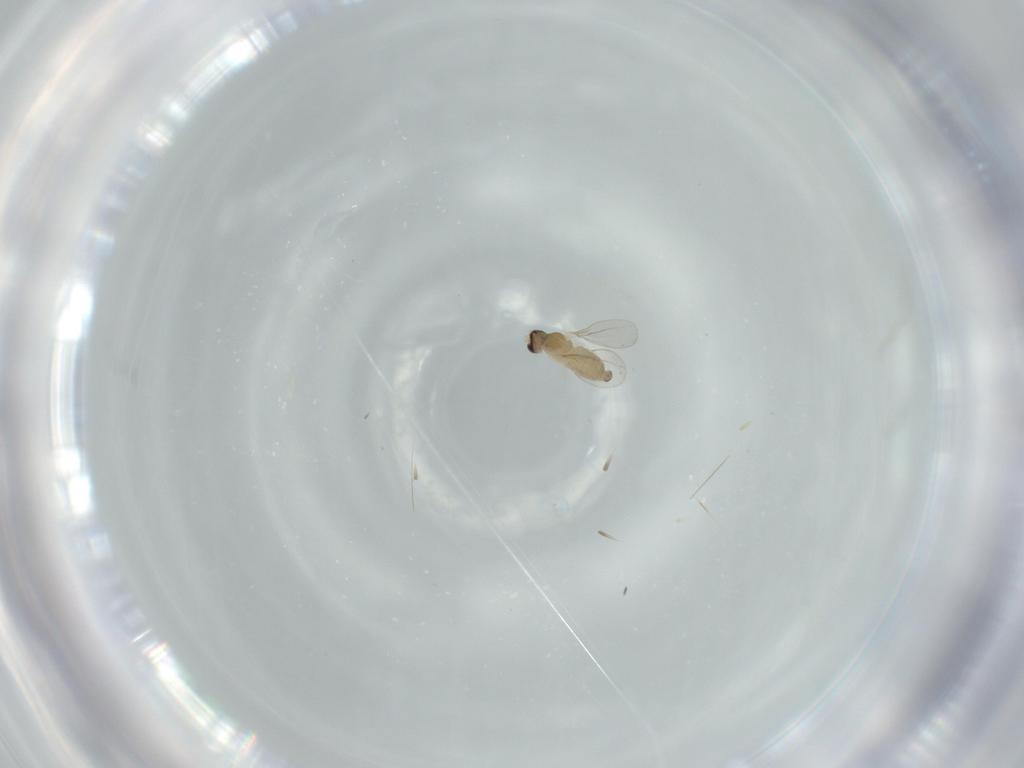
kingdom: Animalia
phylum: Arthropoda
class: Insecta
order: Diptera
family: Cecidomyiidae
